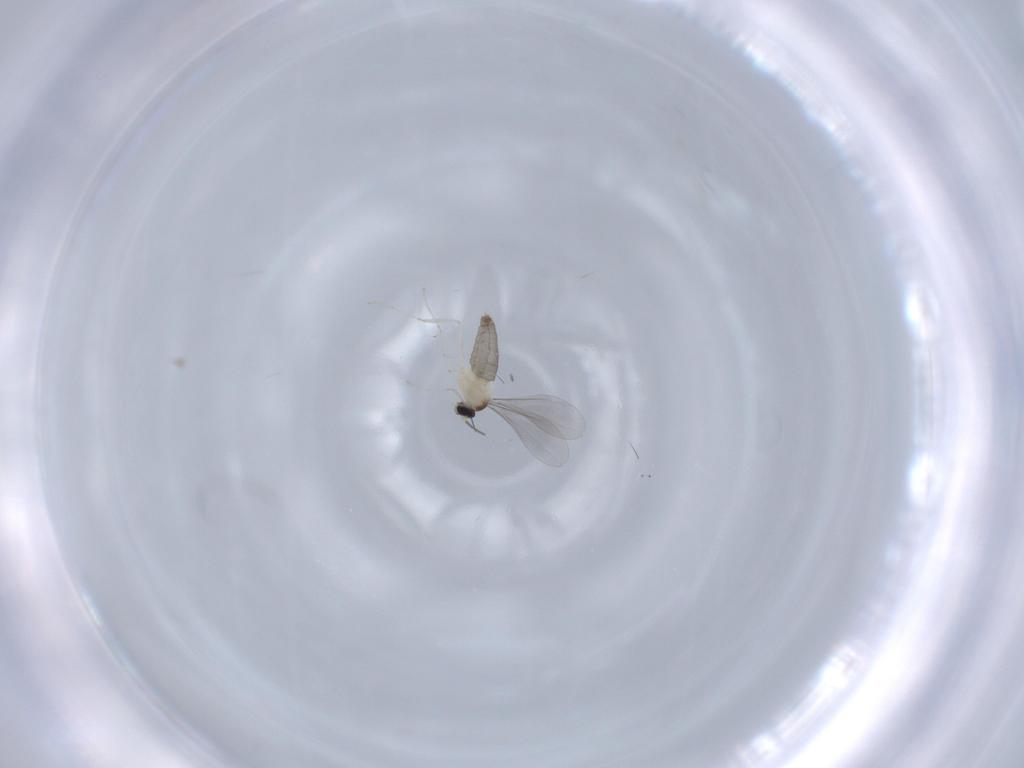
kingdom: Animalia
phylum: Arthropoda
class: Insecta
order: Diptera
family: Cecidomyiidae
